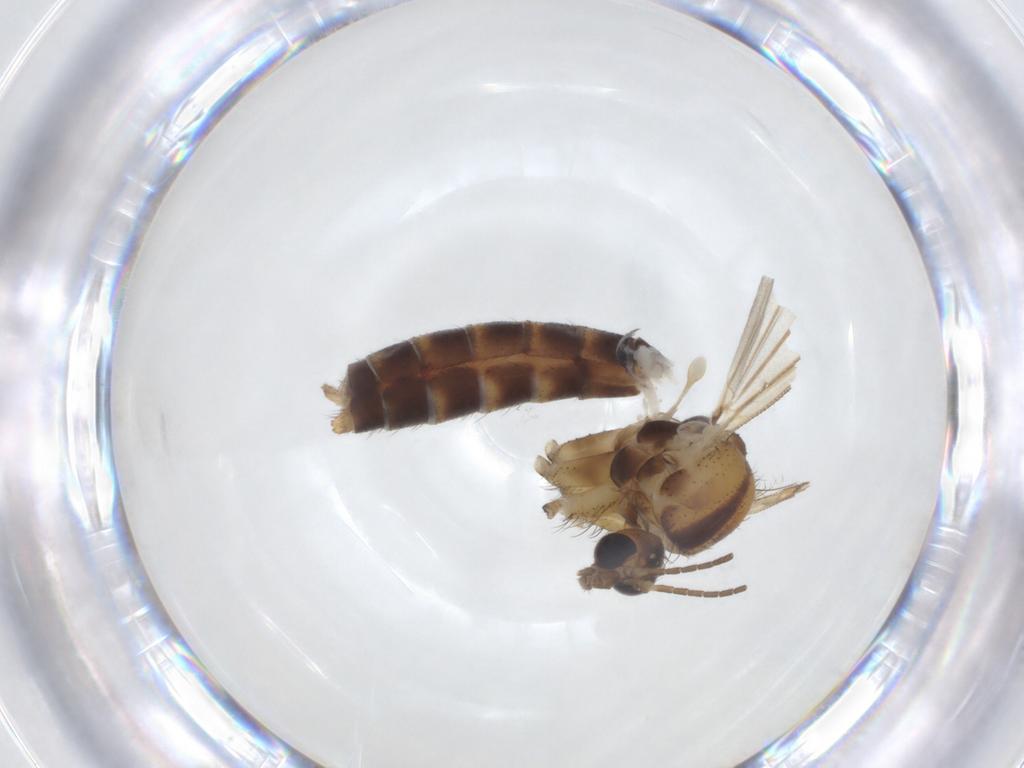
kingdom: Animalia
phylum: Arthropoda
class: Insecta
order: Diptera
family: Mycetophilidae
